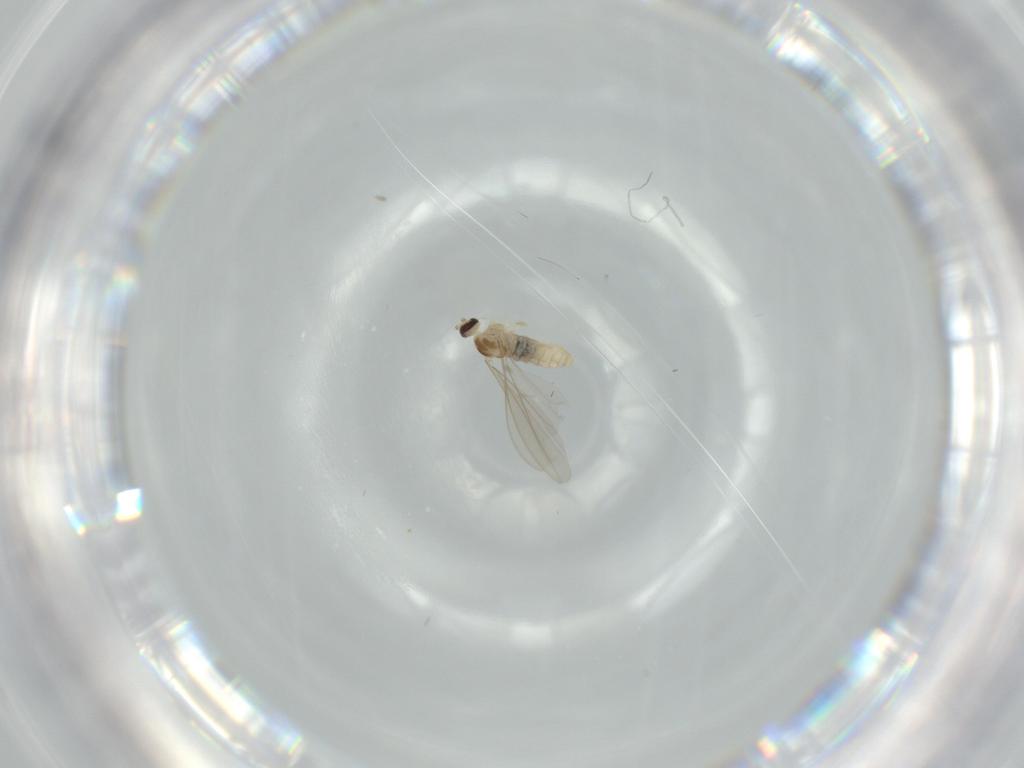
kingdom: Animalia
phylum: Arthropoda
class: Insecta
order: Diptera
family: Cecidomyiidae
